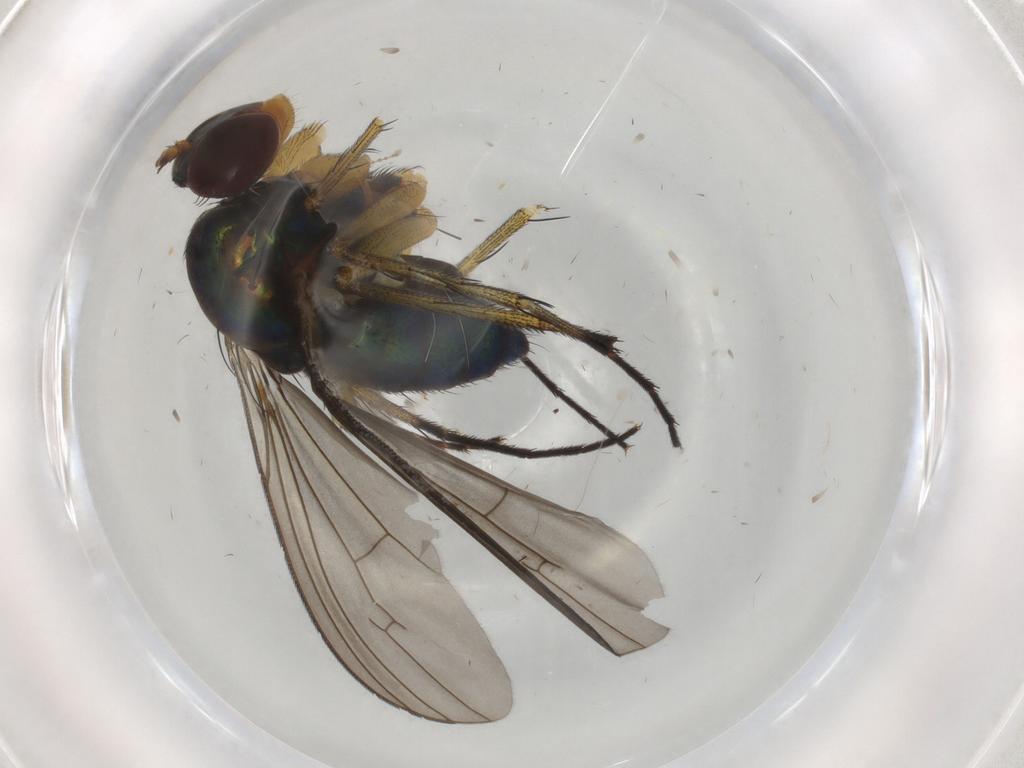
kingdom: Animalia
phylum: Arthropoda
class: Insecta
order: Diptera
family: Dolichopodidae
